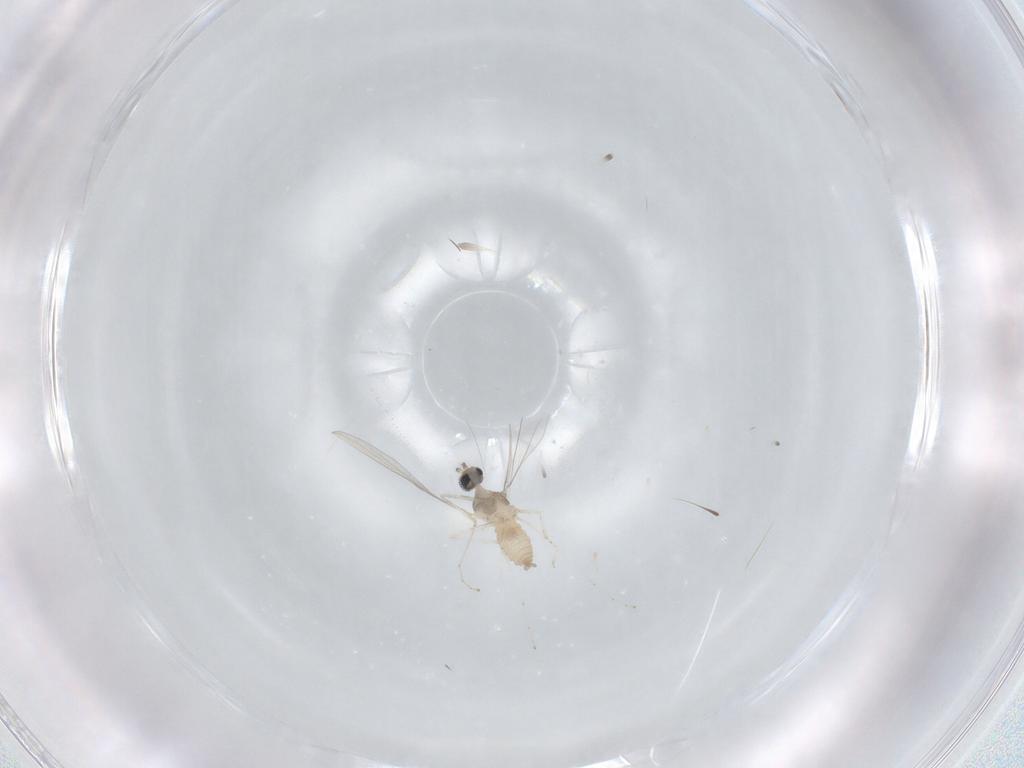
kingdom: Animalia
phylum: Arthropoda
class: Insecta
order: Diptera
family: Cecidomyiidae
